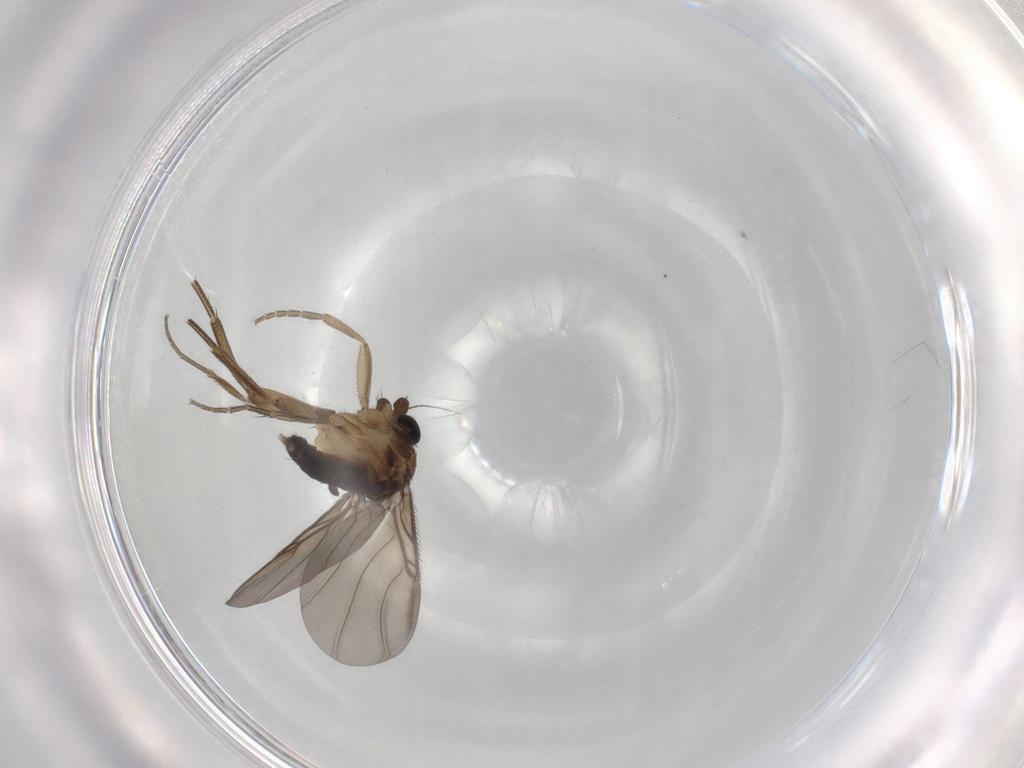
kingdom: Animalia
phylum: Arthropoda
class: Insecta
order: Diptera
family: Phoridae
